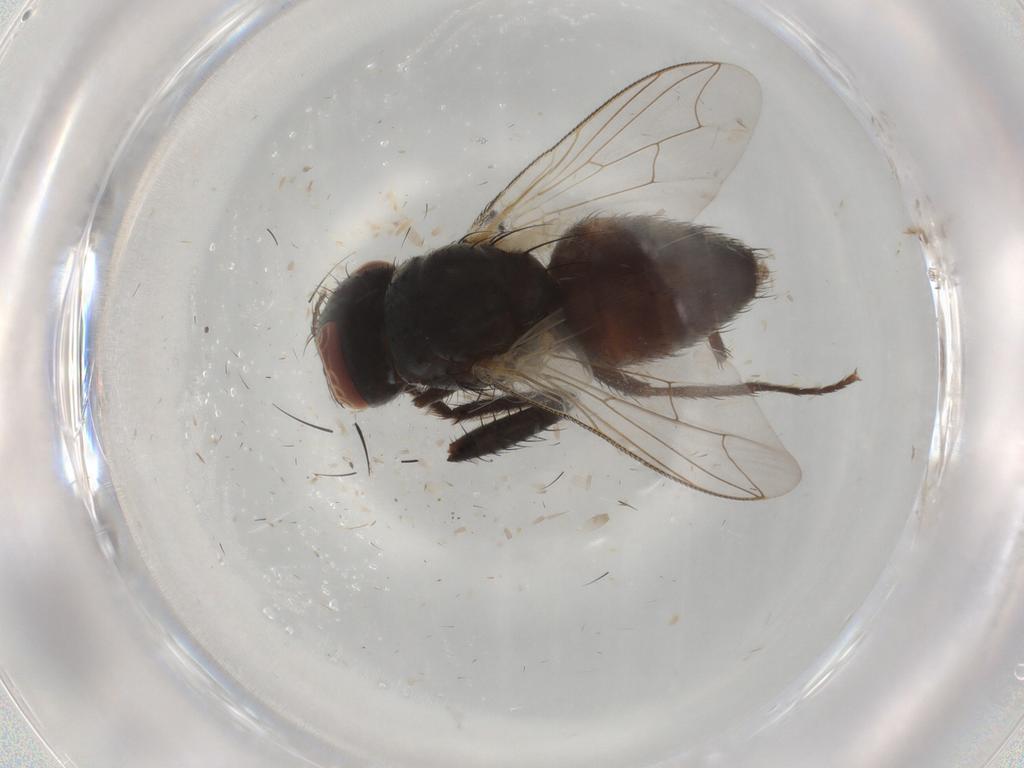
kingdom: Animalia
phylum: Arthropoda
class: Insecta
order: Diptera
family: Sarcophagidae
